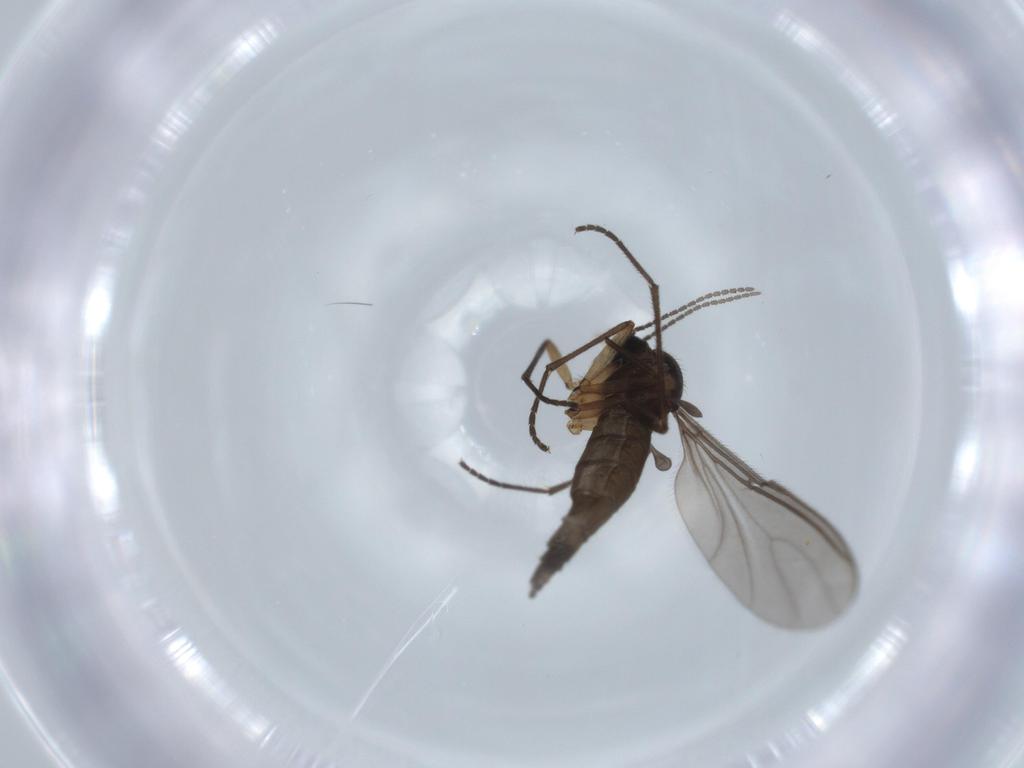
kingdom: Animalia
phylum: Arthropoda
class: Insecta
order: Diptera
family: Sciaridae
